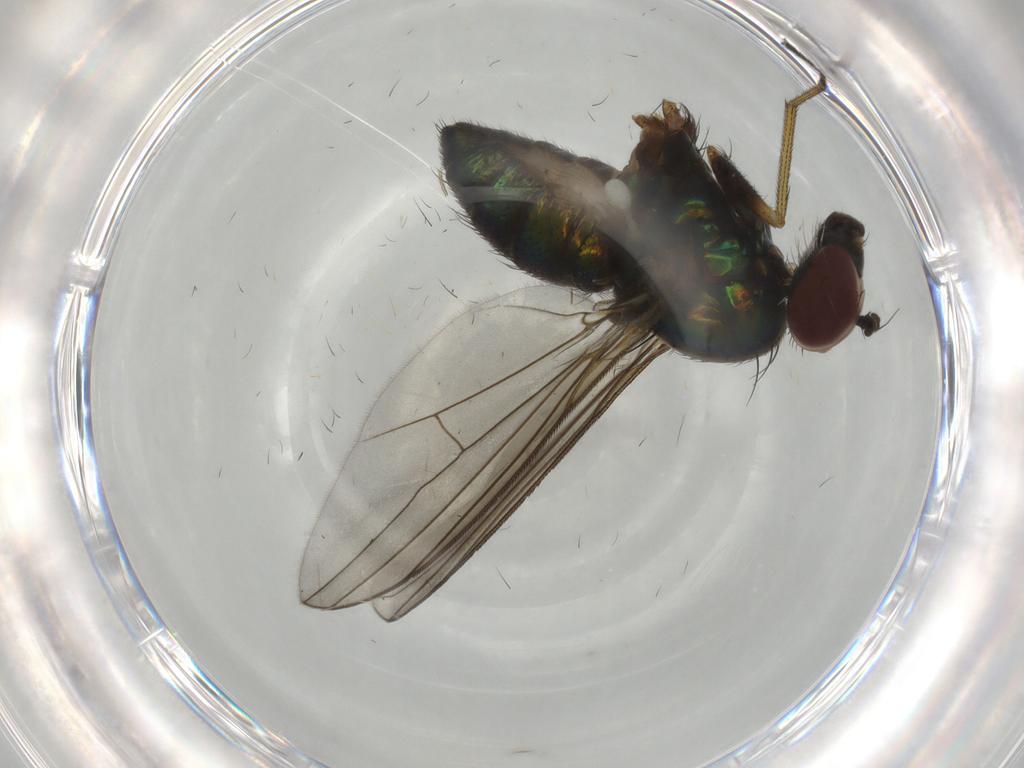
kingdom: Animalia
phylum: Arthropoda
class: Insecta
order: Diptera
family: Dolichopodidae
